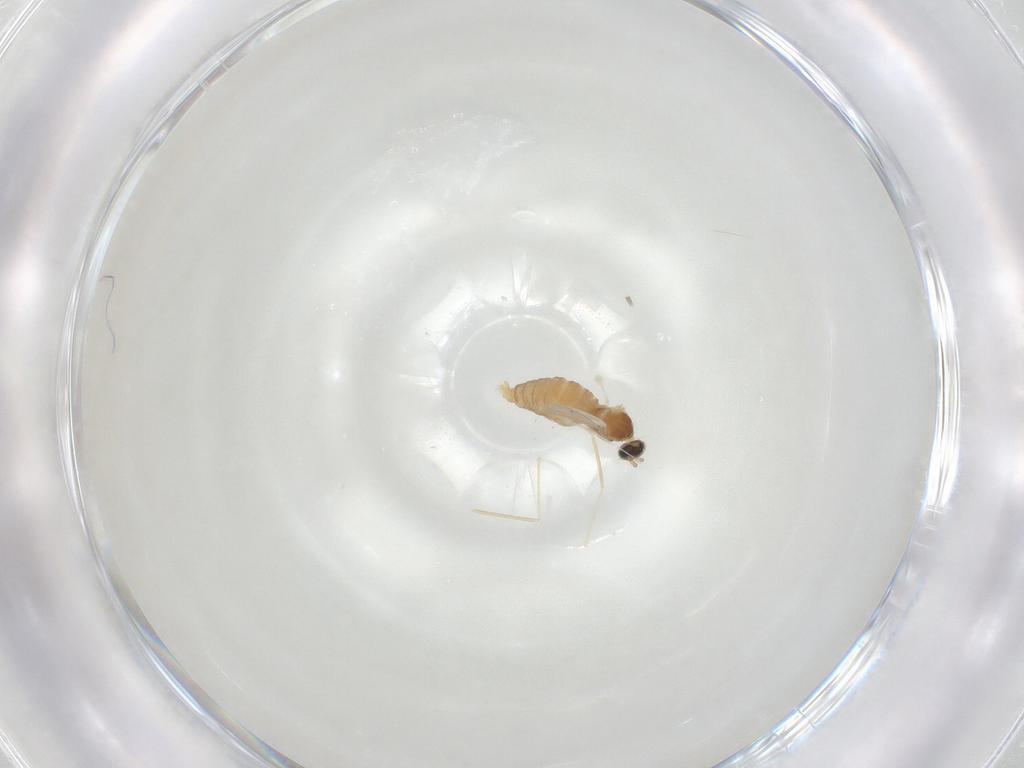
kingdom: Animalia
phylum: Arthropoda
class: Insecta
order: Diptera
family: Cecidomyiidae
